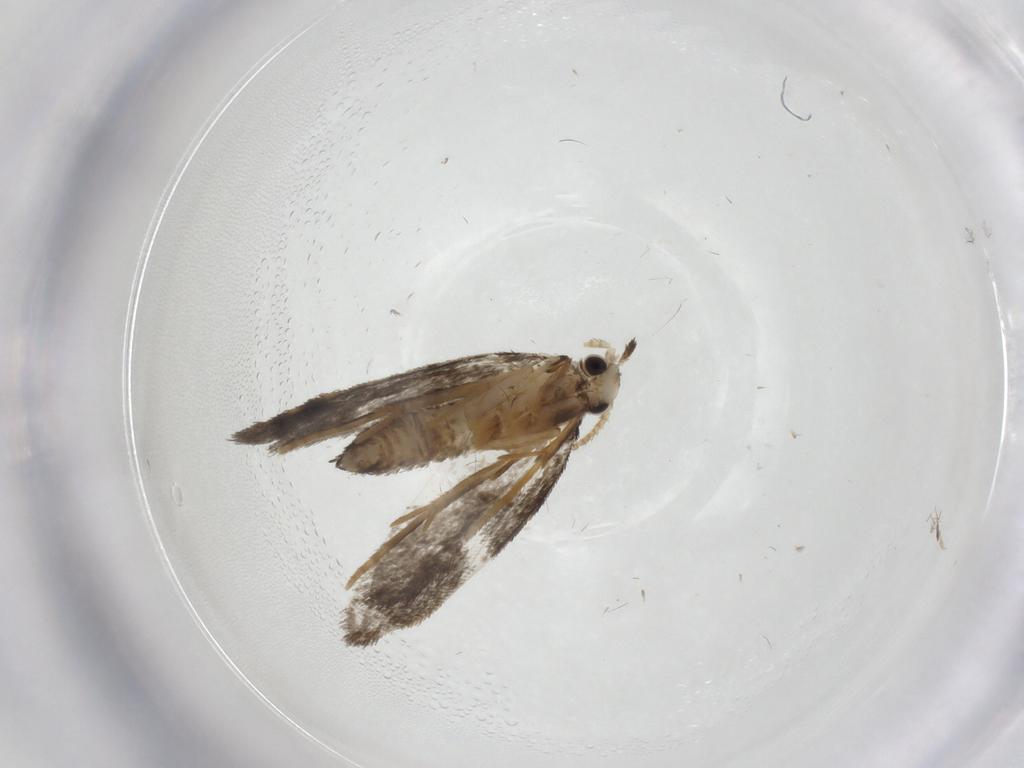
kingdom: Animalia
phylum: Arthropoda
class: Insecta
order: Lepidoptera
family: Psychidae
